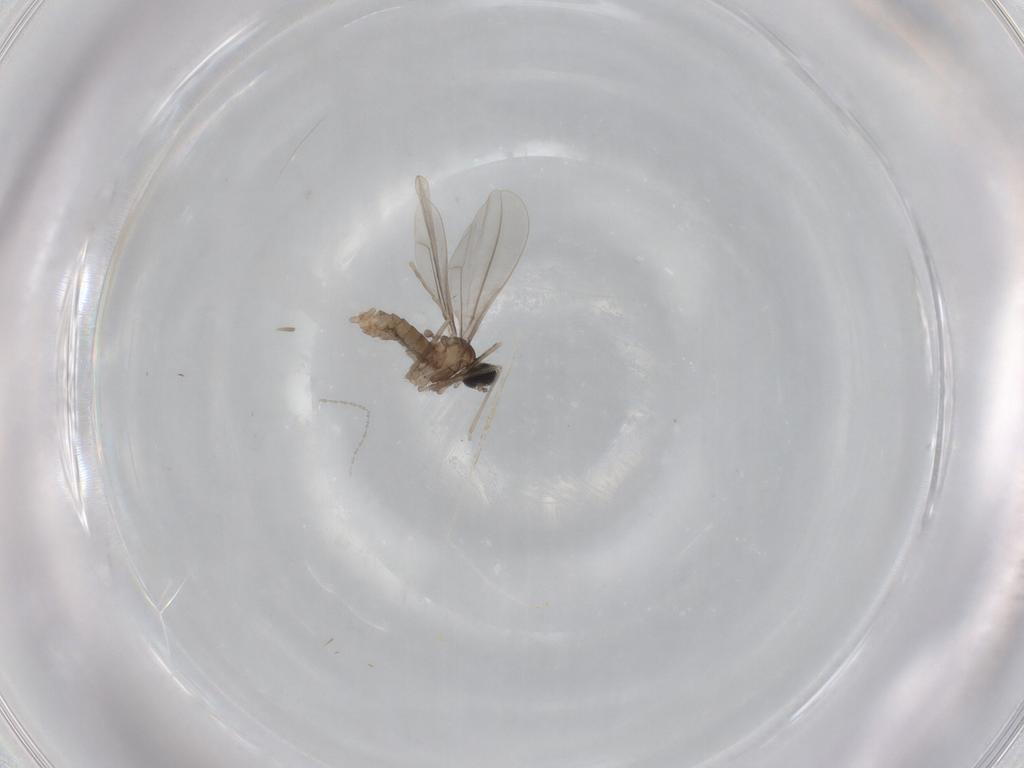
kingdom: Animalia
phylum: Arthropoda
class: Insecta
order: Diptera
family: Cecidomyiidae
